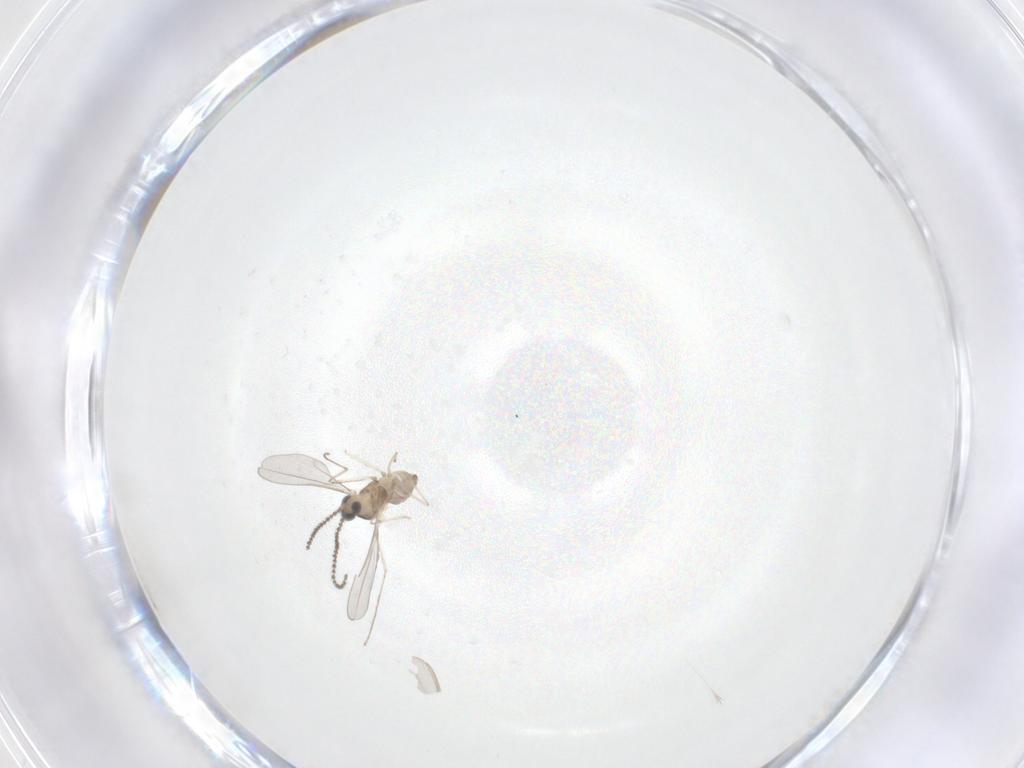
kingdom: Animalia
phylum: Arthropoda
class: Insecta
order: Diptera
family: Cecidomyiidae
